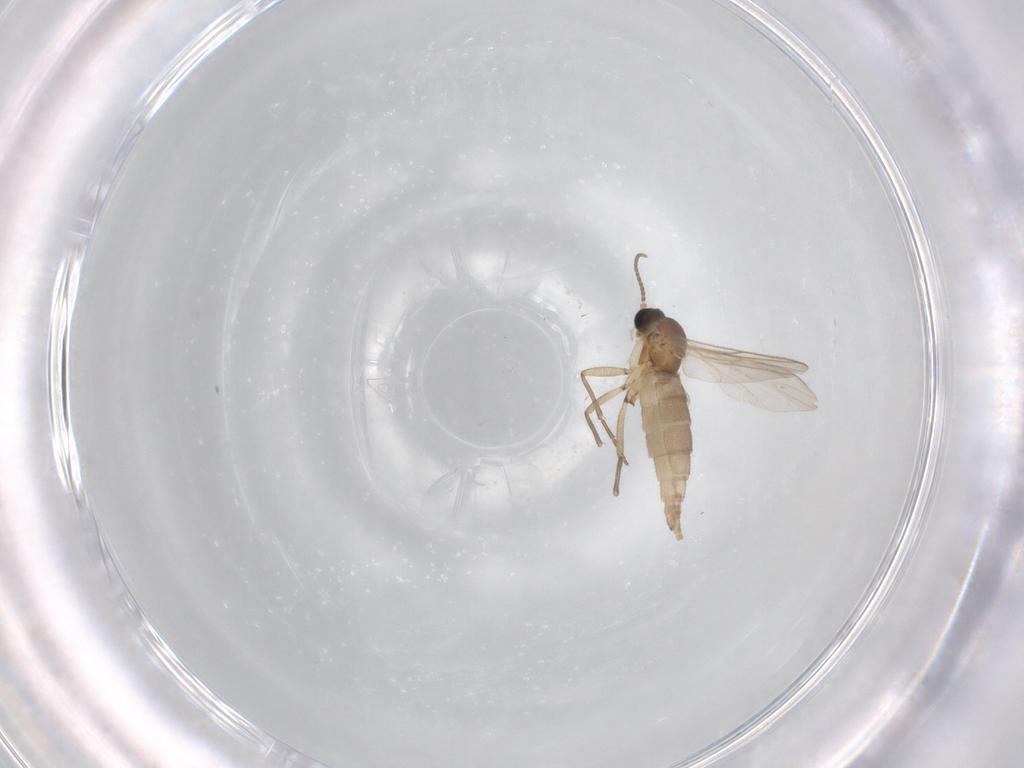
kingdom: Animalia
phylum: Arthropoda
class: Insecta
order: Diptera
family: Sciaridae
